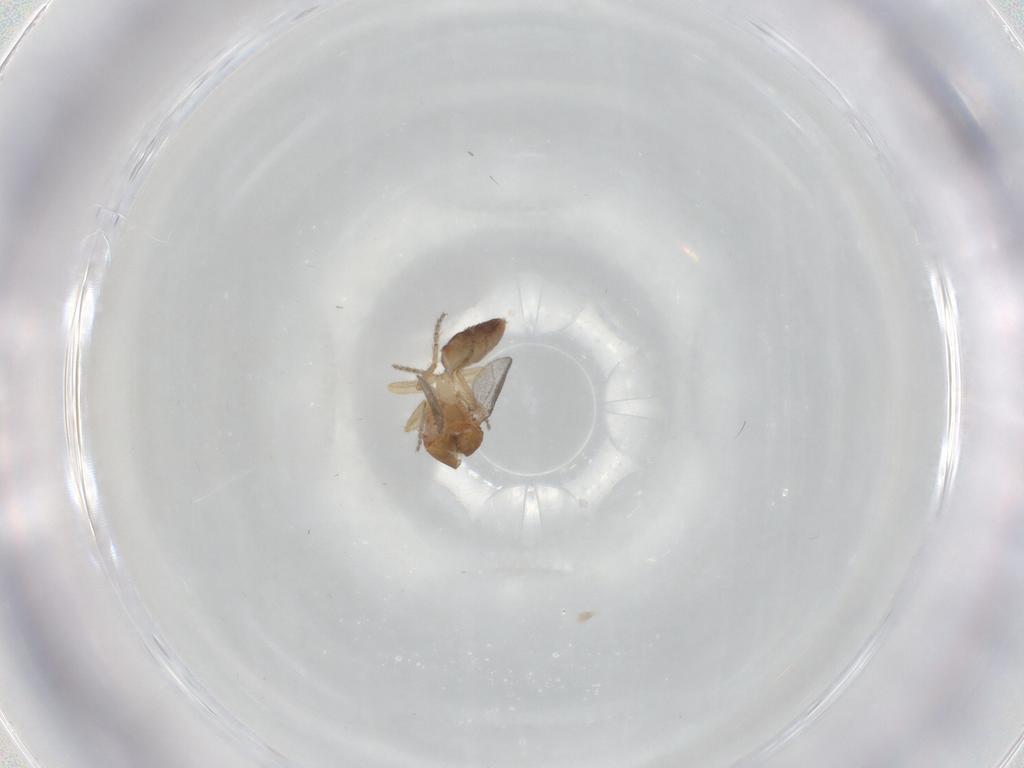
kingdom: Animalia
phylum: Arthropoda
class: Insecta
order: Diptera
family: Ceratopogonidae
